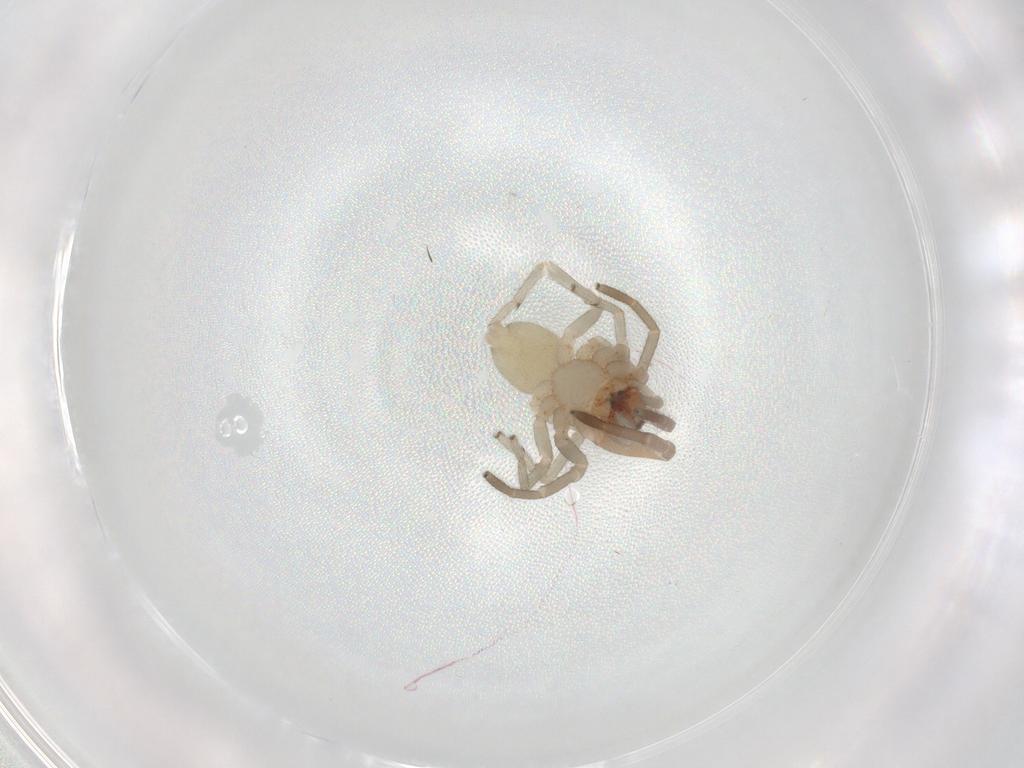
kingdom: Animalia
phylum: Arthropoda
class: Arachnida
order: Araneae
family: Anyphaenidae
